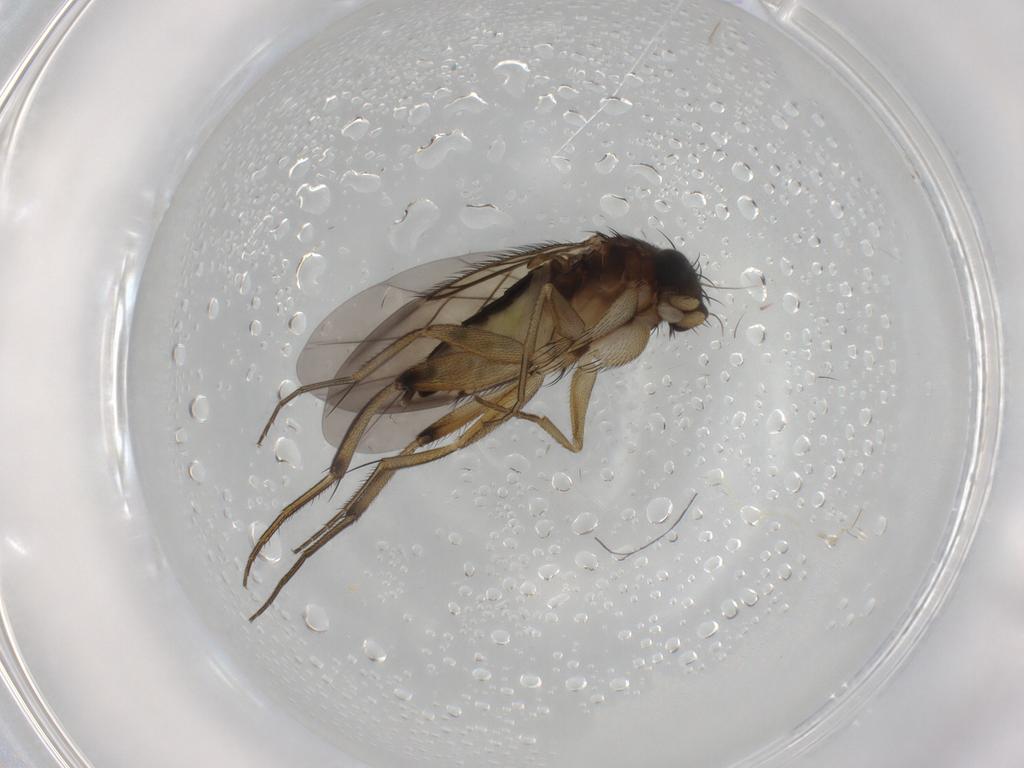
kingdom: Animalia
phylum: Arthropoda
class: Insecta
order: Diptera
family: Phoridae
